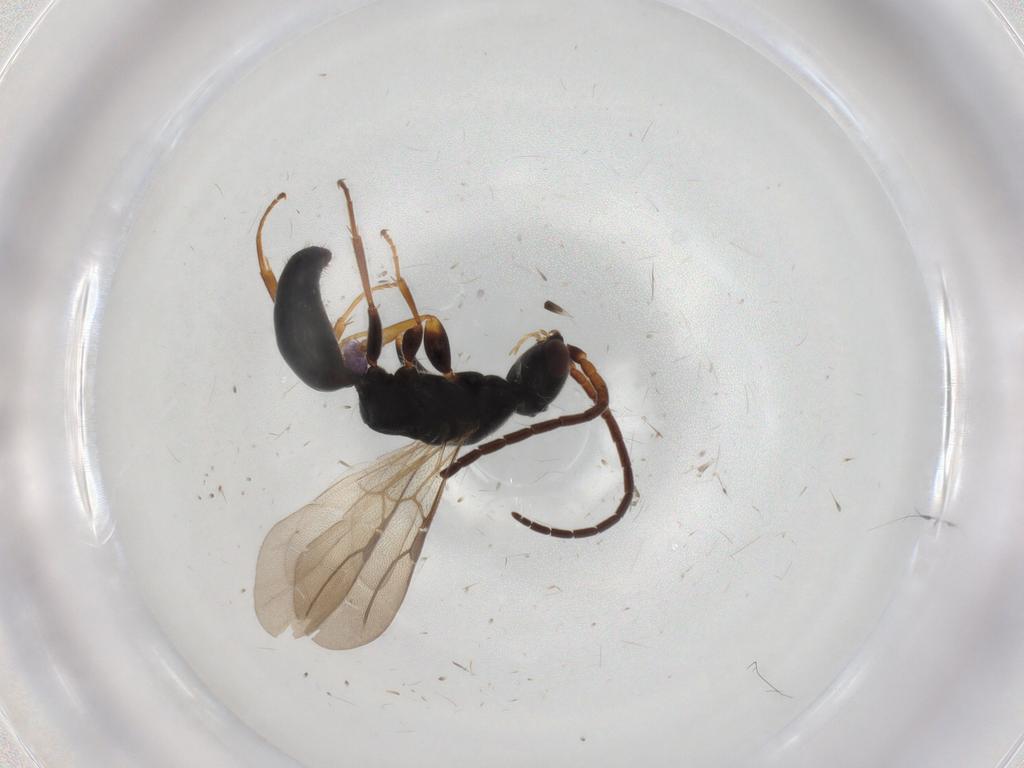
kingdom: Animalia
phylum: Arthropoda
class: Insecta
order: Hymenoptera
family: Bethylidae
